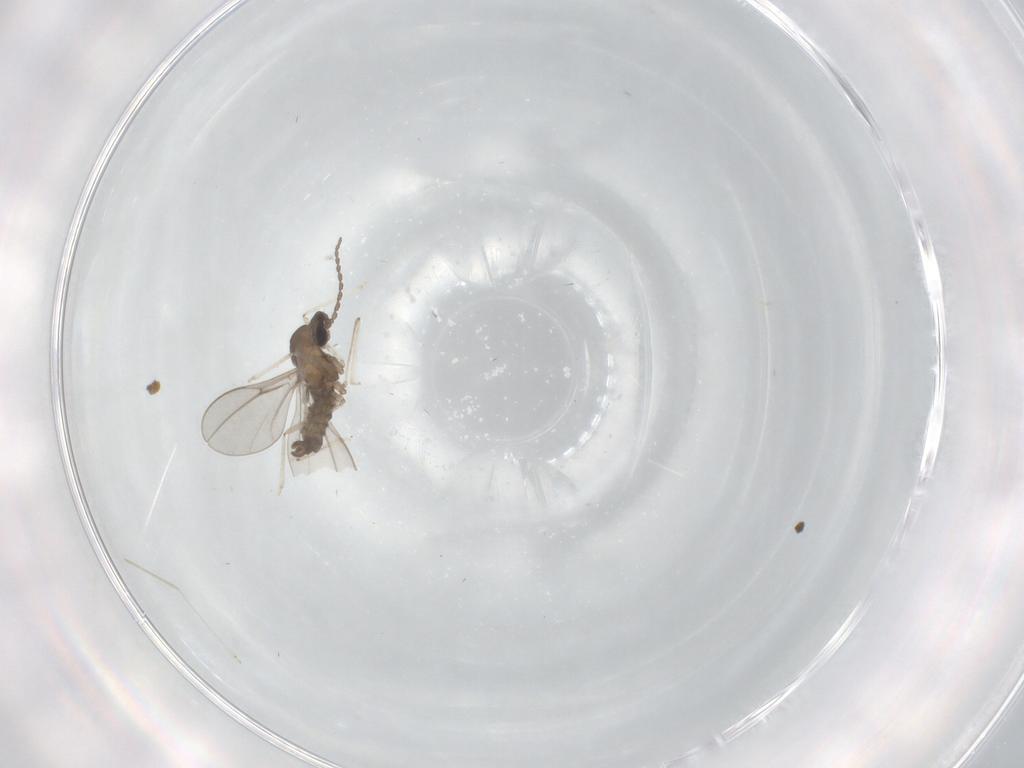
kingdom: Animalia
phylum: Arthropoda
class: Insecta
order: Diptera
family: Cecidomyiidae
